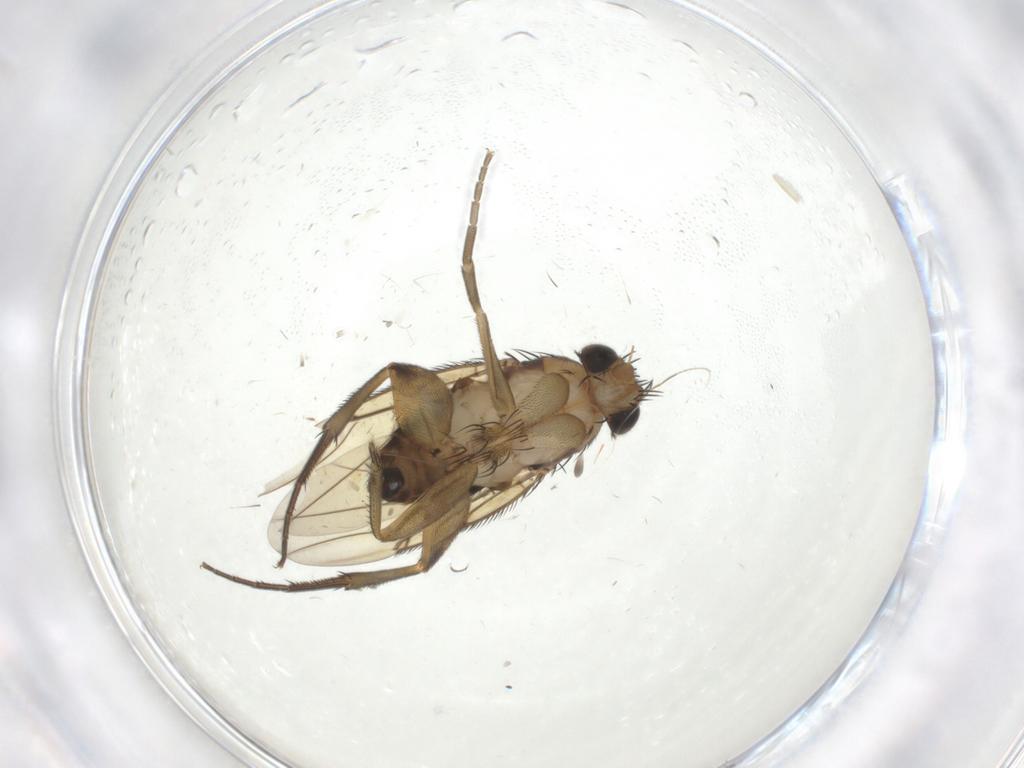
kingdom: Animalia
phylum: Arthropoda
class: Insecta
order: Diptera
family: Phoridae
